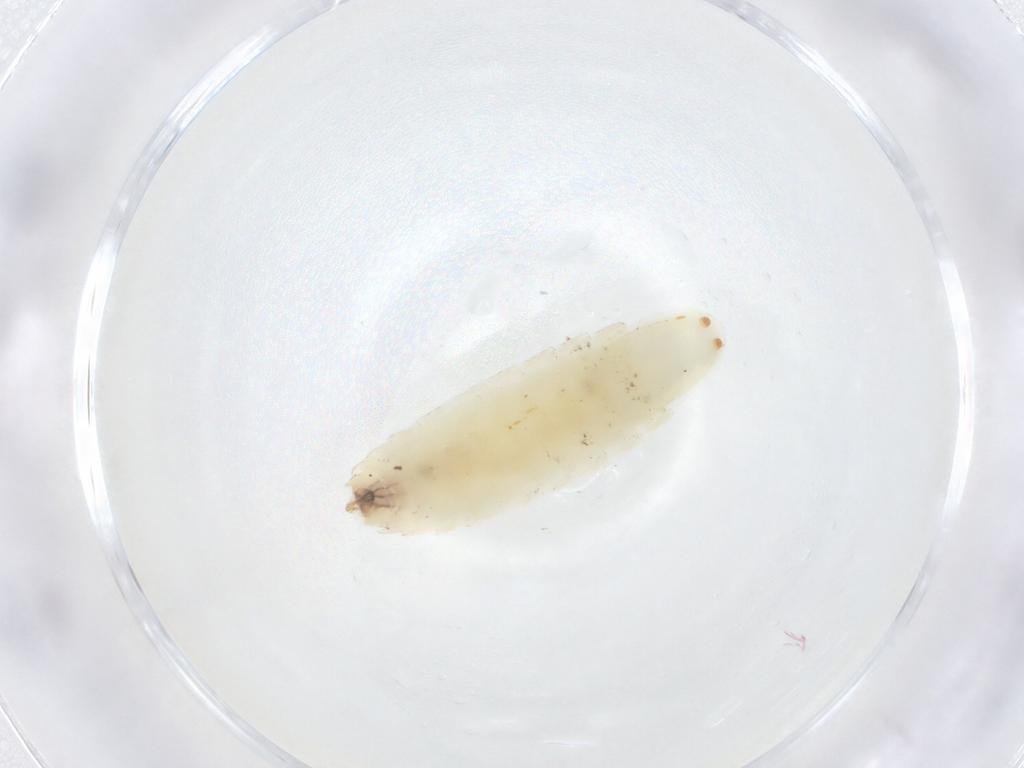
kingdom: Animalia
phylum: Arthropoda
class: Insecta
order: Diptera
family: Empididae
